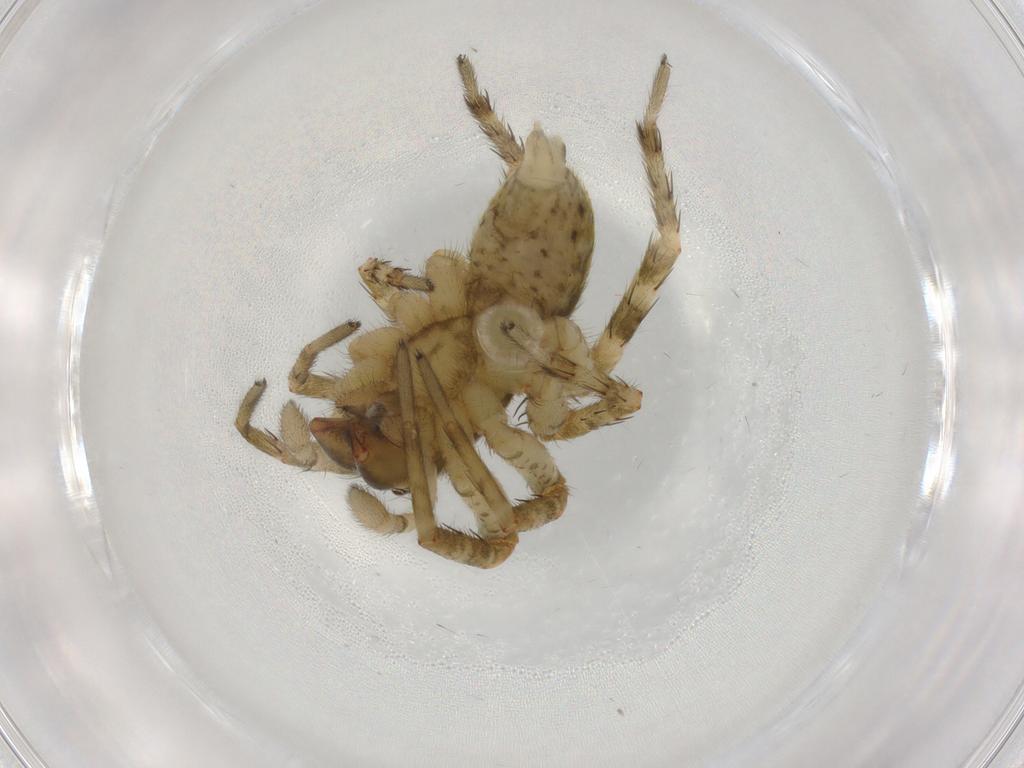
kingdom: Animalia
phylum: Arthropoda
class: Arachnida
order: Araneae
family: Anyphaenidae
